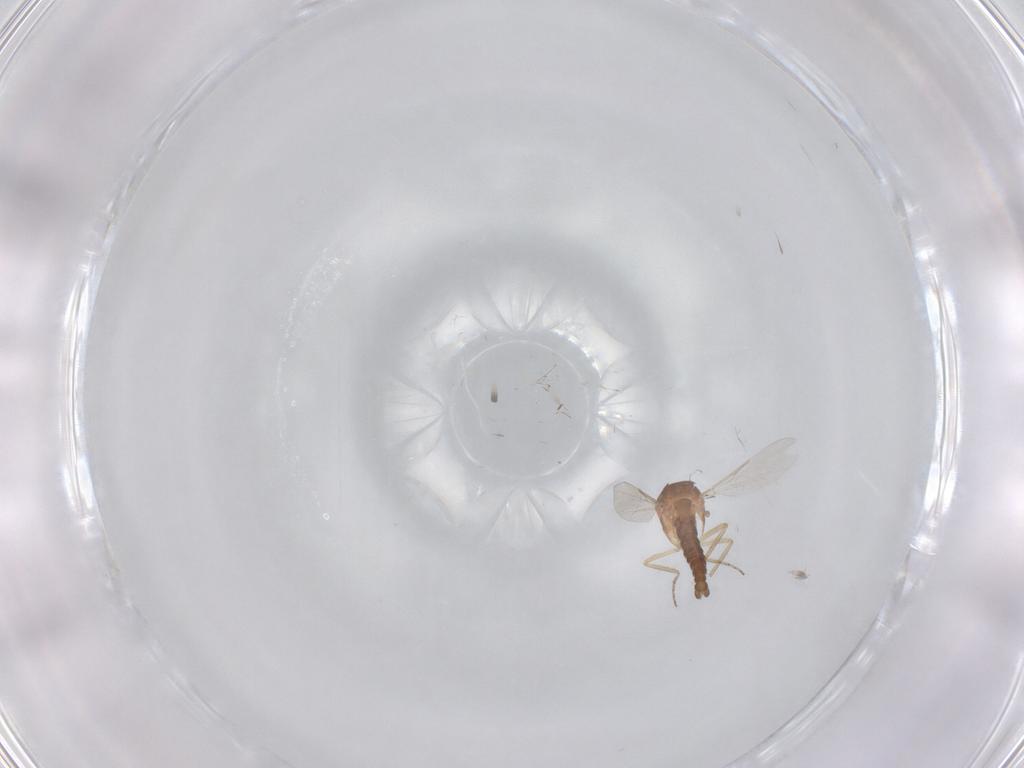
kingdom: Animalia
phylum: Arthropoda
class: Insecta
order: Diptera
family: Ceratopogonidae
